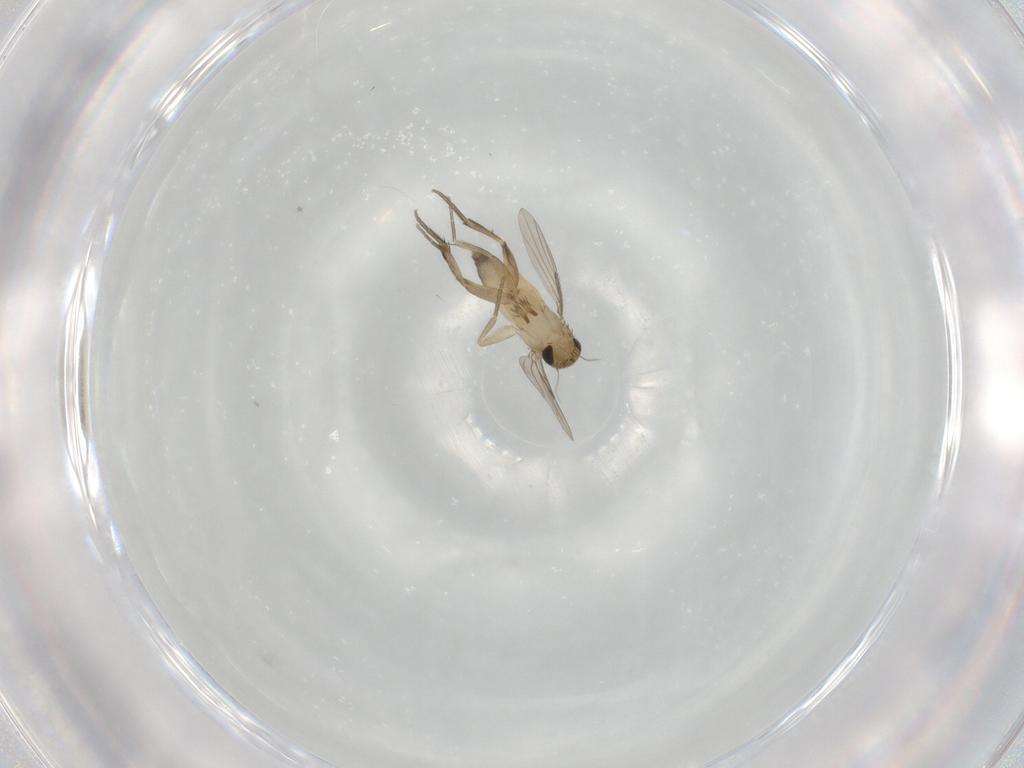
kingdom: Animalia
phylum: Arthropoda
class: Insecta
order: Diptera
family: Phoridae
